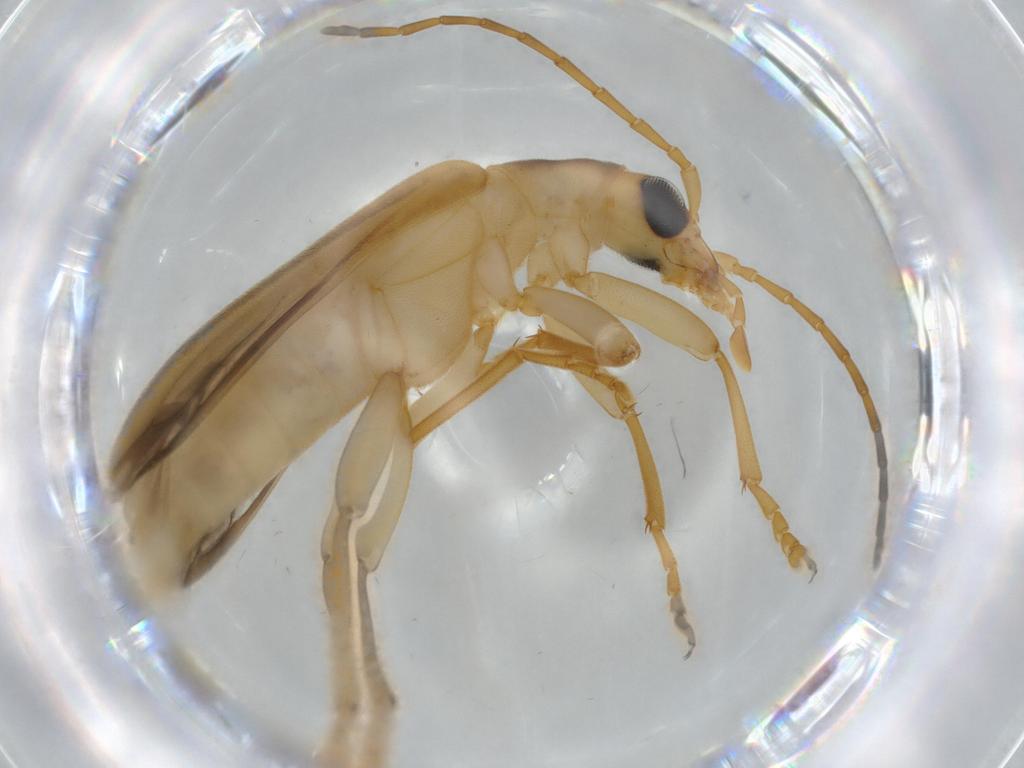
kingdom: Animalia
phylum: Arthropoda
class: Insecta
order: Coleoptera
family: Oedemeridae
